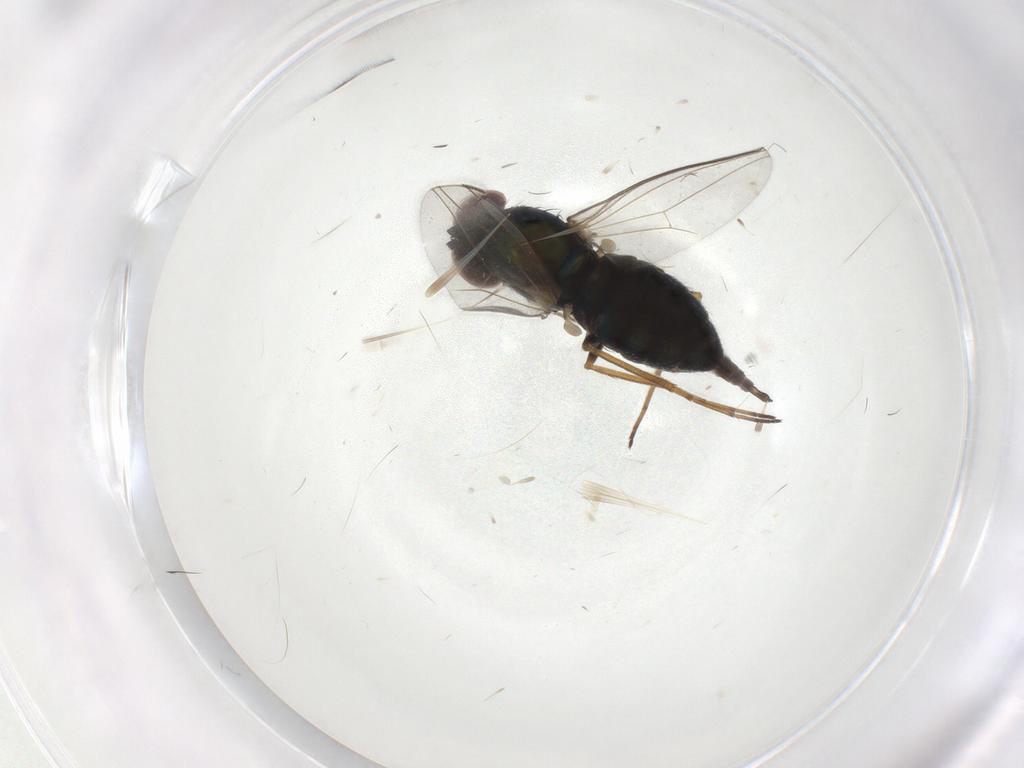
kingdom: Animalia
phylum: Arthropoda
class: Insecta
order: Diptera
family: Dolichopodidae
